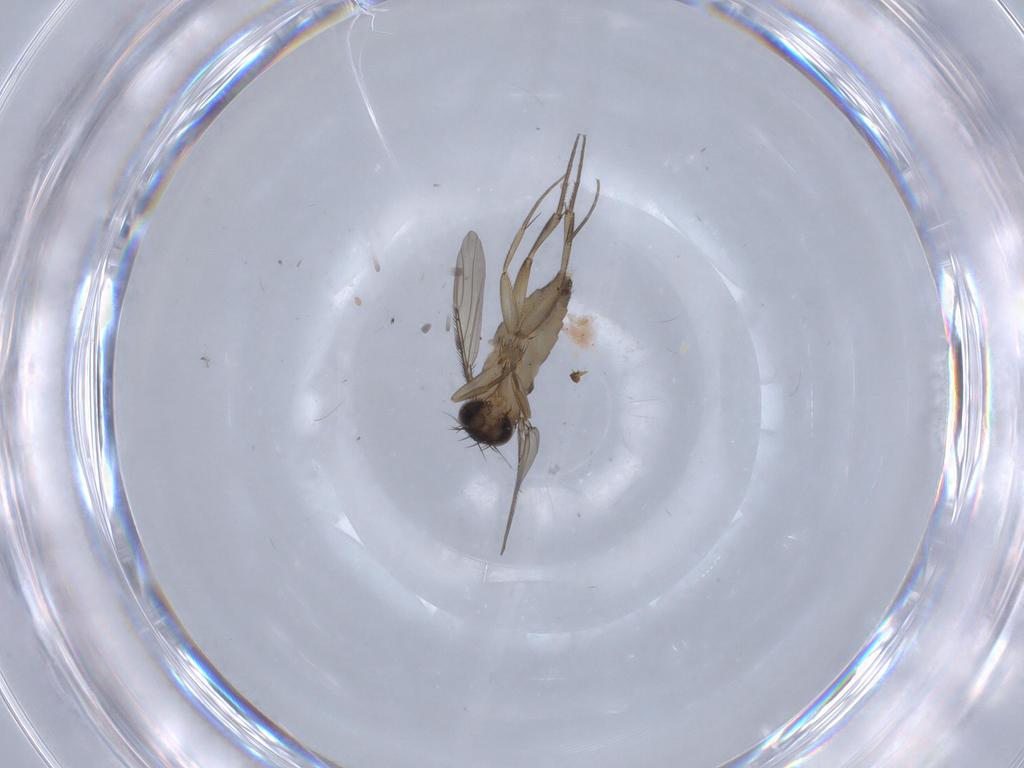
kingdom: Animalia
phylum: Arthropoda
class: Insecta
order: Diptera
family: Phoridae
